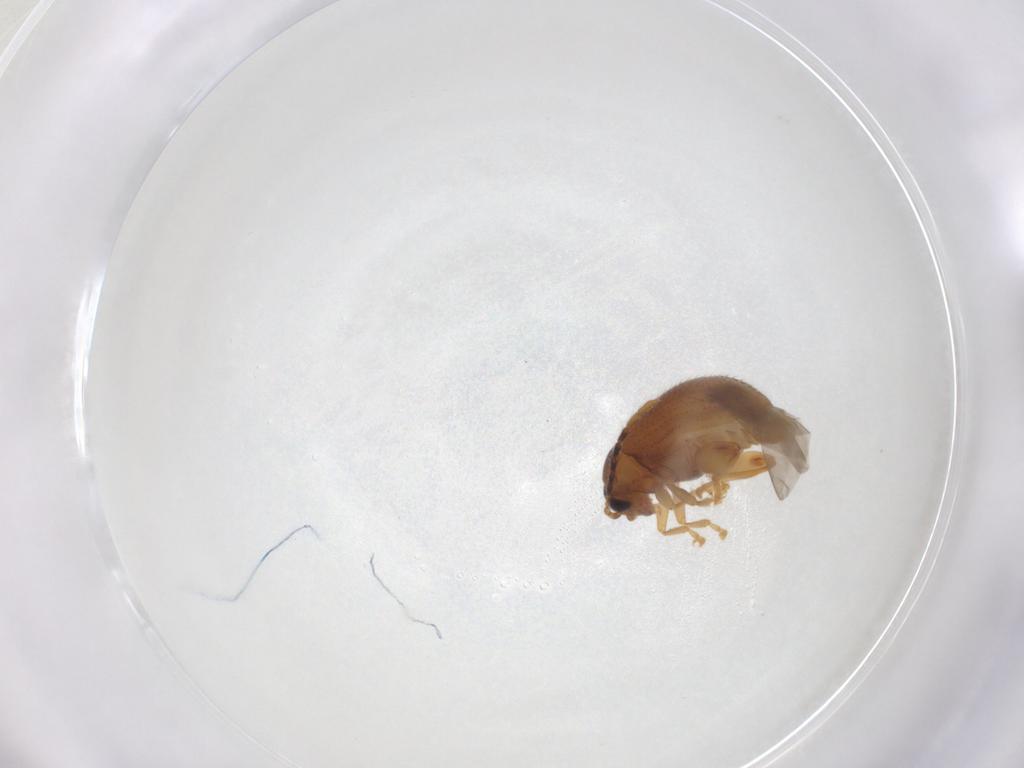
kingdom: Animalia
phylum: Arthropoda
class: Insecta
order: Coleoptera
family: Chrysomelidae
